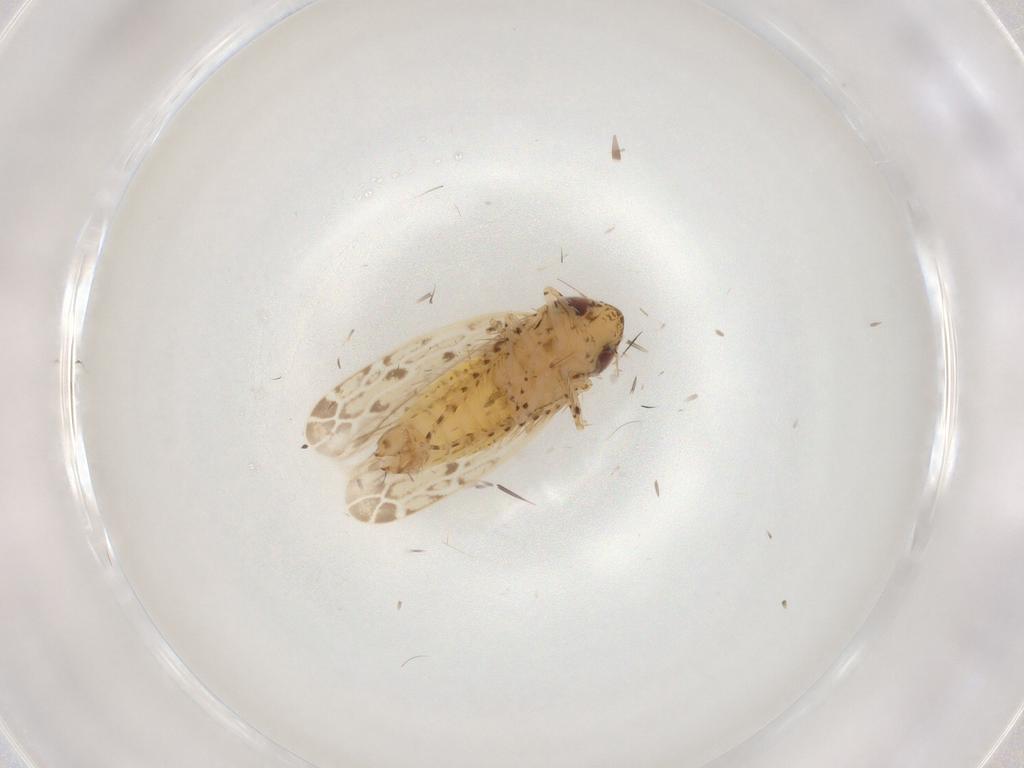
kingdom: Animalia
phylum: Arthropoda
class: Insecta
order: Hemiptera
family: Cicadellidae
